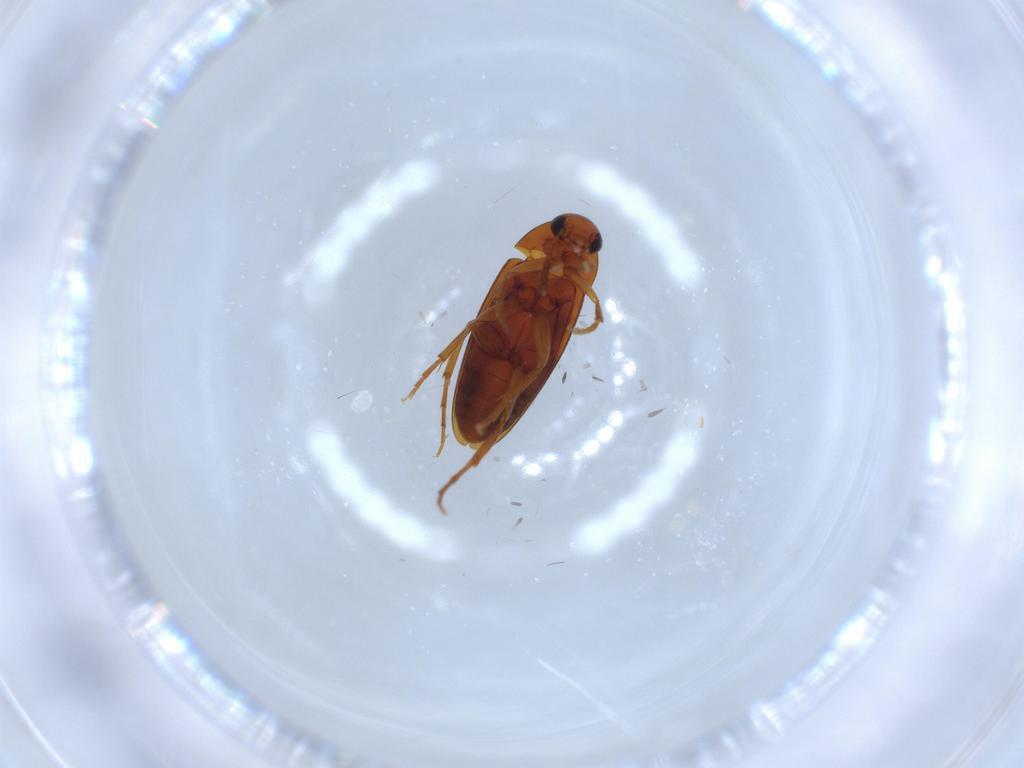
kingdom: Animalia
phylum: Arthropoda
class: Insecta
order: Coleoptera
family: Scraptiidae
